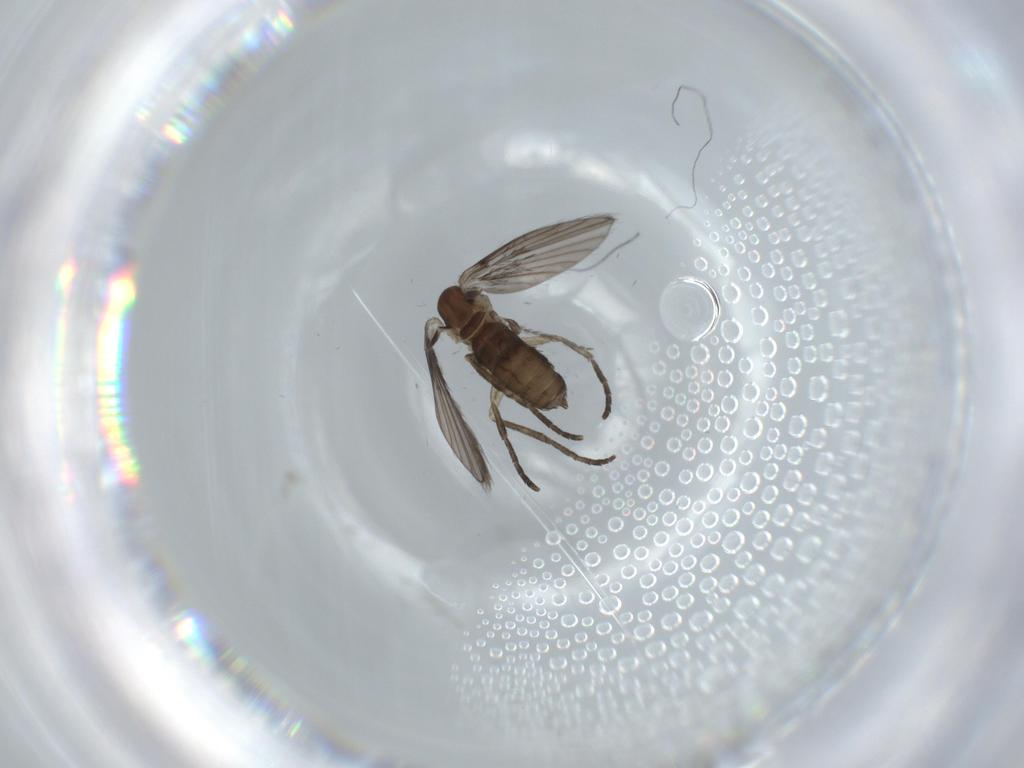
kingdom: Animalia
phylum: Arthropoda
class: Insecta
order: Diptera
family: Psychodidae
